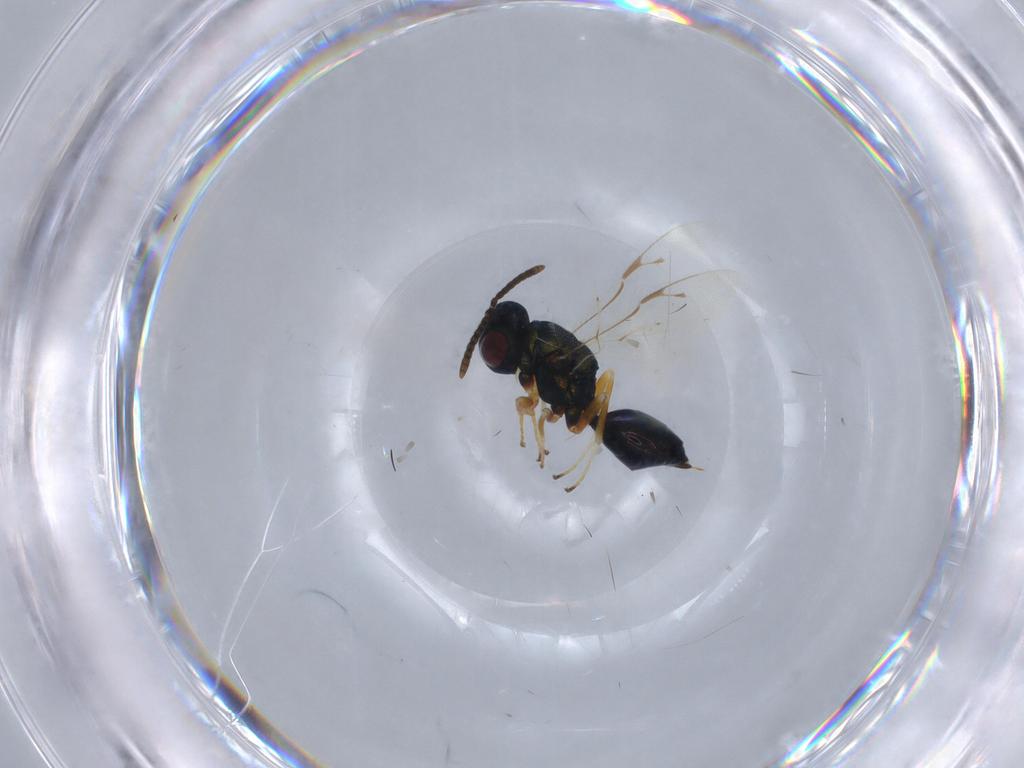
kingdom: Animalia
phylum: Arthropoda
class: Insecta
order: Hymenoptera
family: Pteromalidae
